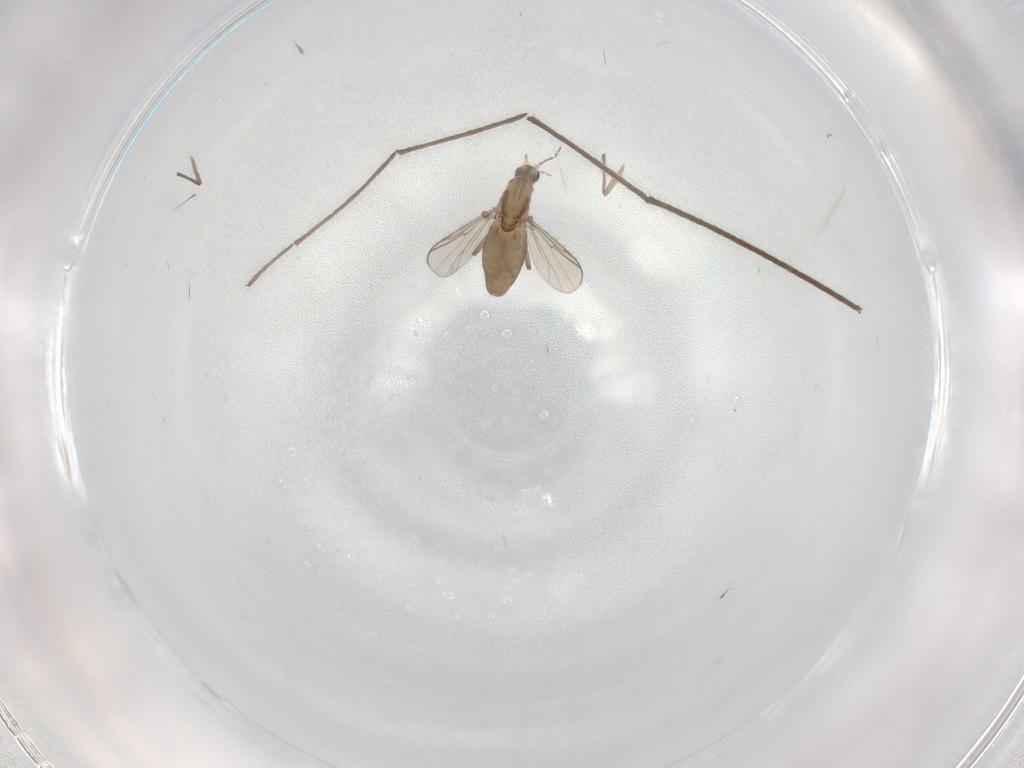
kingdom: Animalia
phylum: Arthropoda
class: Insecta
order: Diptera
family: Chironomidae
